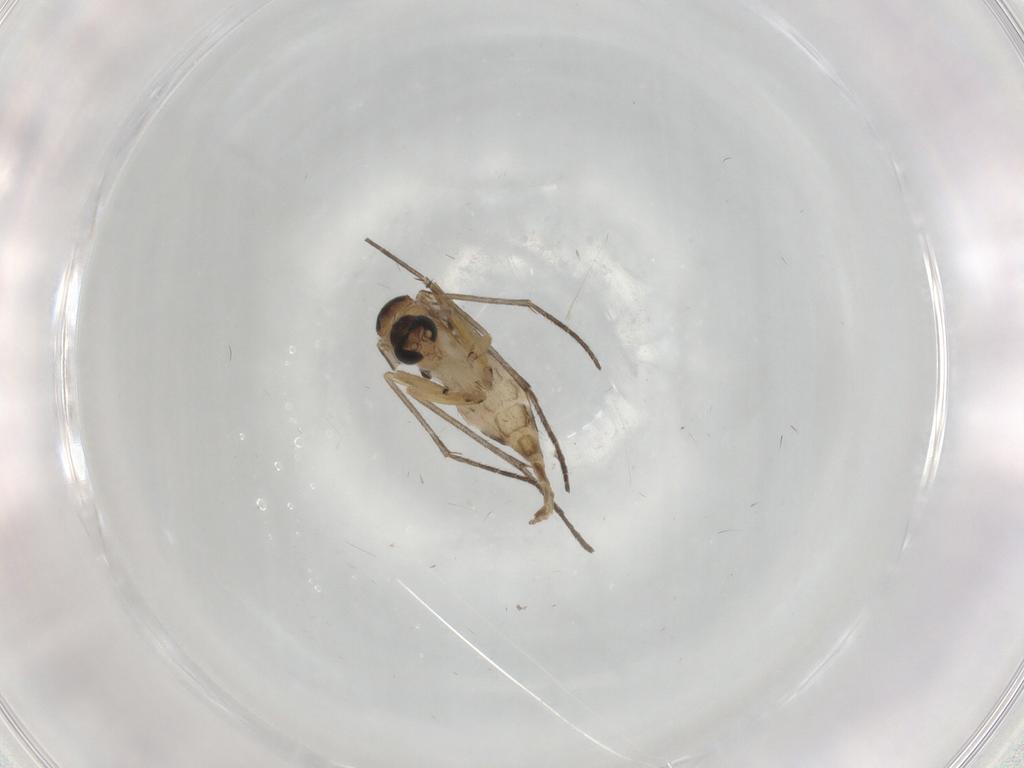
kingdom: Animalia
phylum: Arthropoda
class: Insecta
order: Diptera
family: Sciaridae
